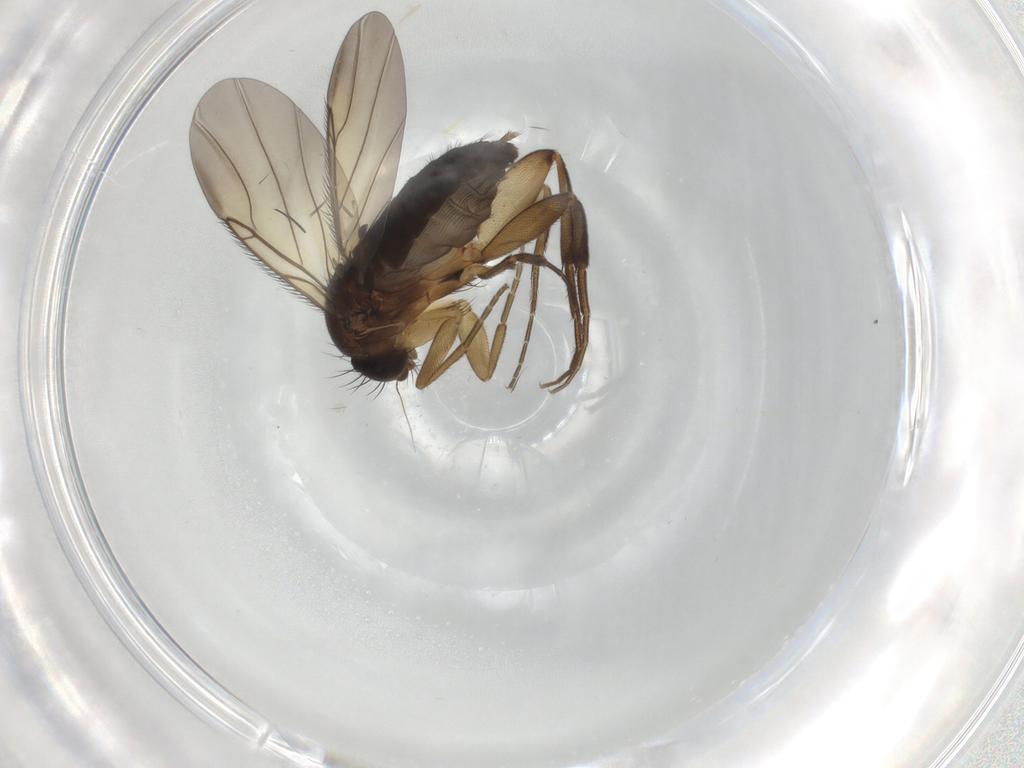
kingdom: Animalia
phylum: Arthropoda
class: Insecta
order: Diptera
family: Phoridae
